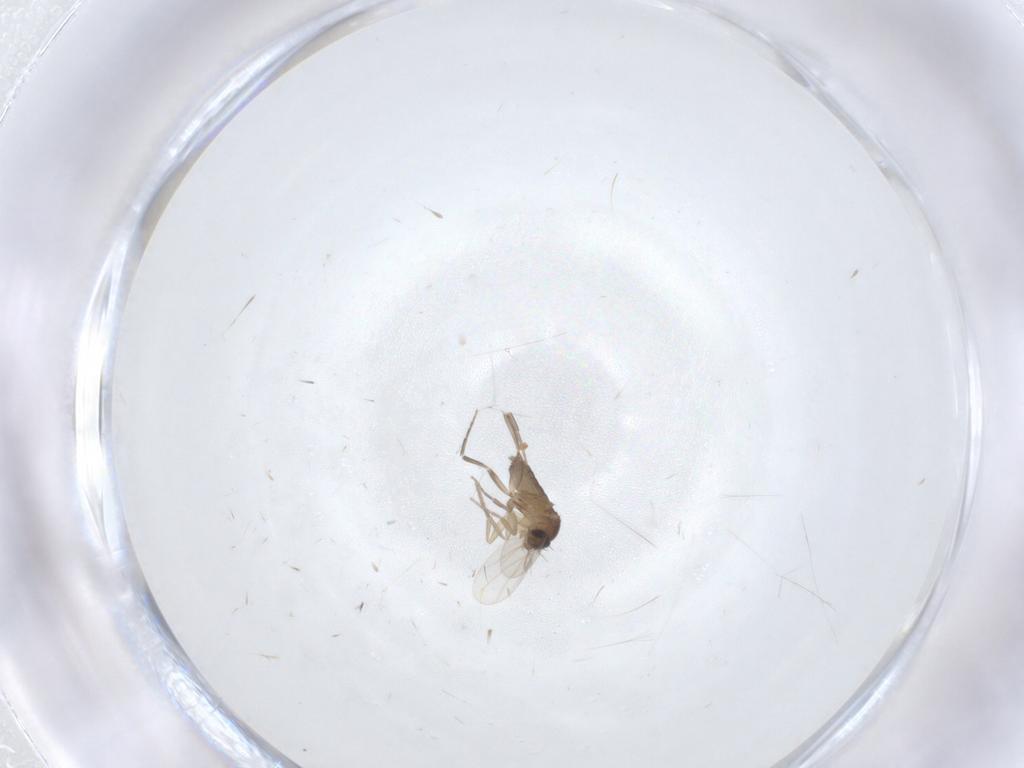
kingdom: Animalia
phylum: Arthropoda
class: Insecta
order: Diptera
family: Phoridae
